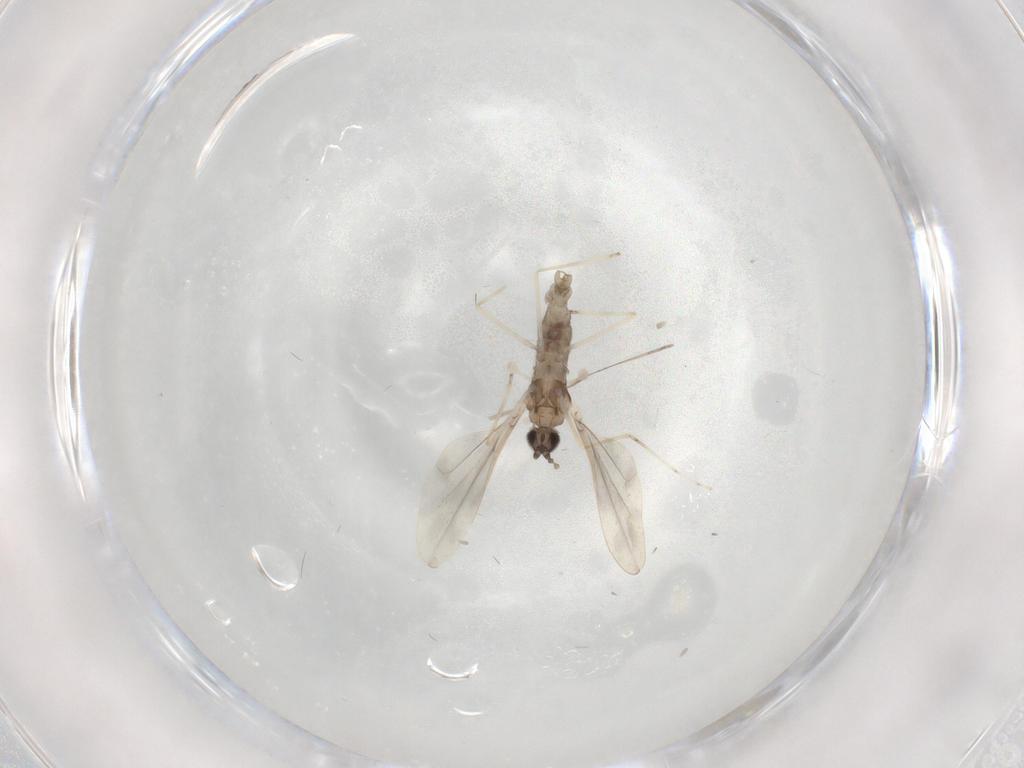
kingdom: Animalia
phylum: Arthropoda
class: Insecta
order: Diptera
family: Cecidomyiidae
